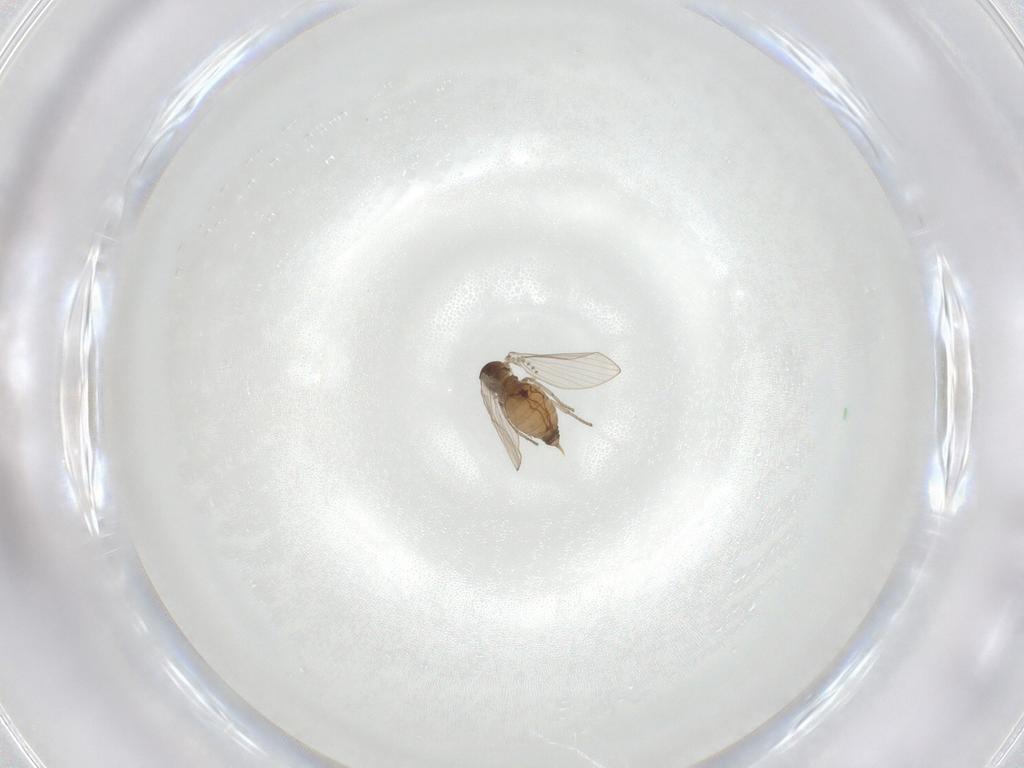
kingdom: Animalia
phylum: Arthropoda
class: Insecta
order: Diptera
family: Psychodidae
